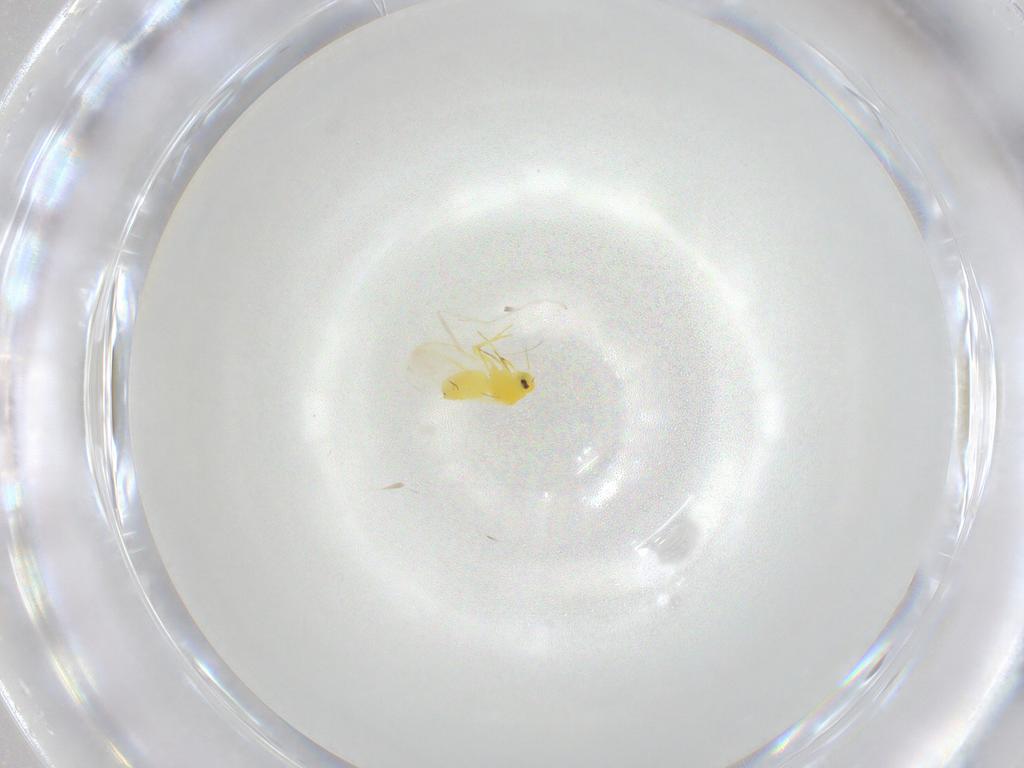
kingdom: Animalia
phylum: Arthropoda
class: Insecta
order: Hemiptera
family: Aleyrodidae
